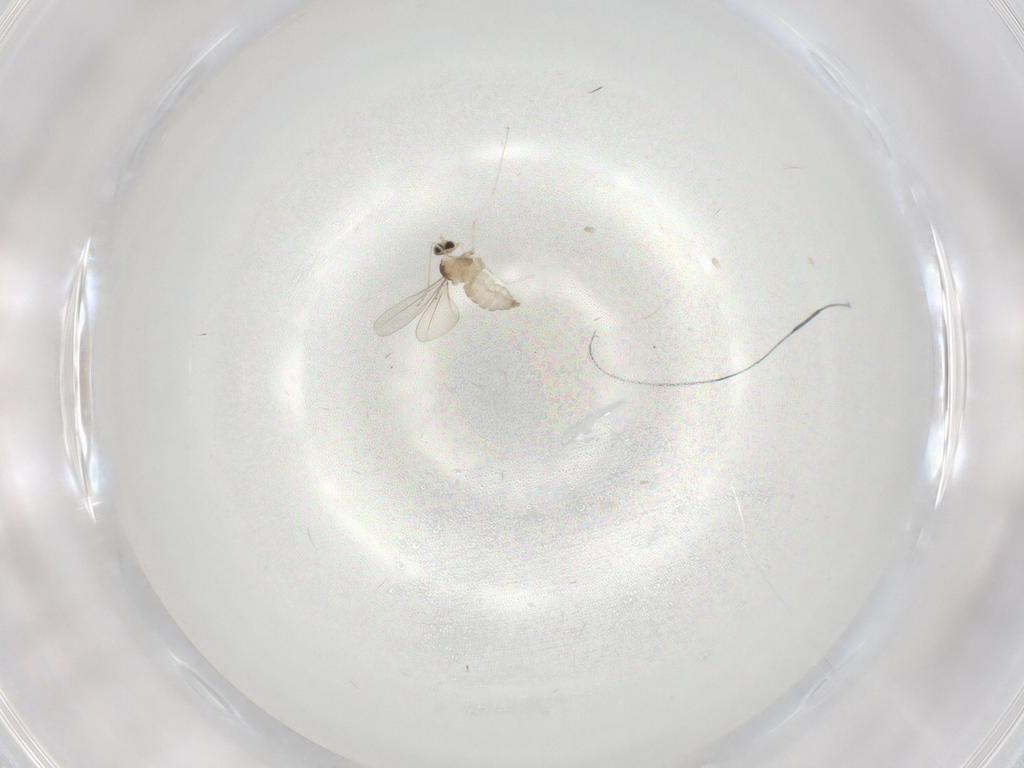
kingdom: Animalia
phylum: Arthropoda
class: Insecta
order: Diptera
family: Cecidomyiidae
